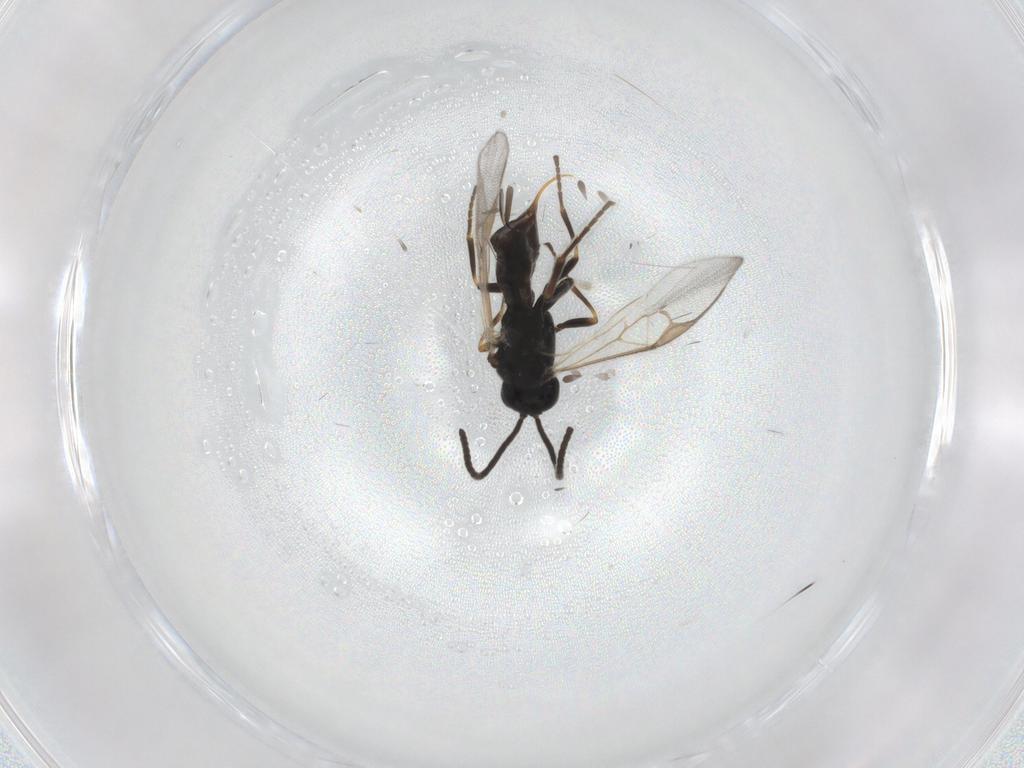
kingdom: Animalia
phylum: Arthropoda
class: Insecta
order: Hymenoptera
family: Braconidae
